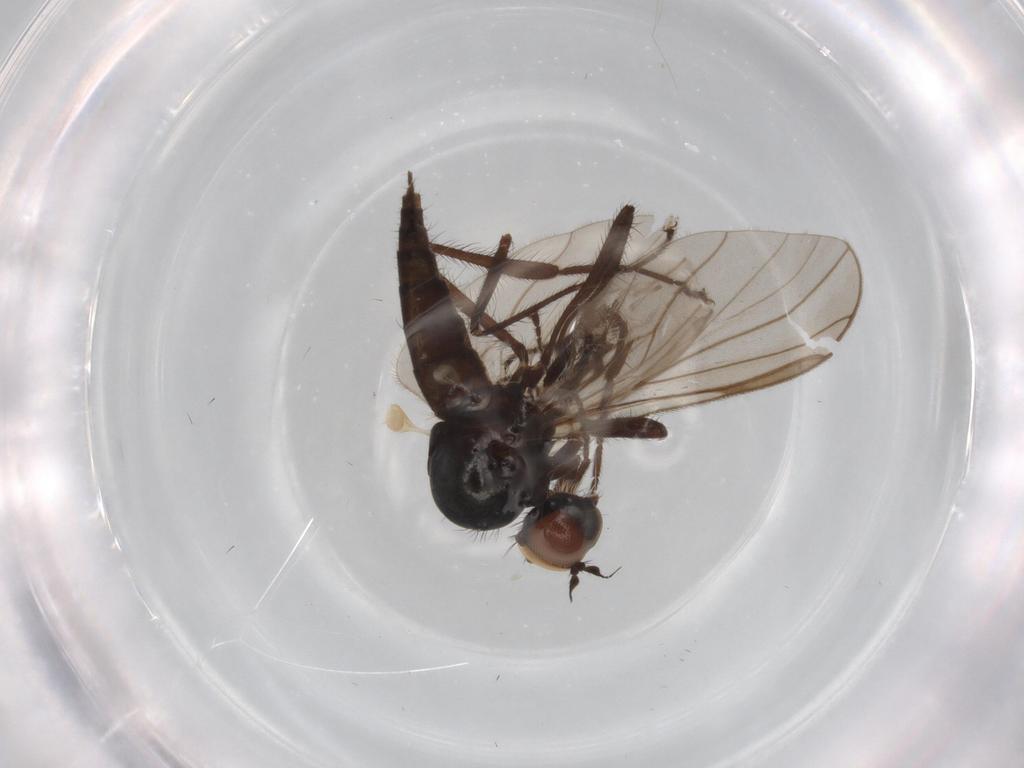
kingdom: Animalia
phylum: Arthropoda
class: Insecta
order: Diptera
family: Hybotidae
